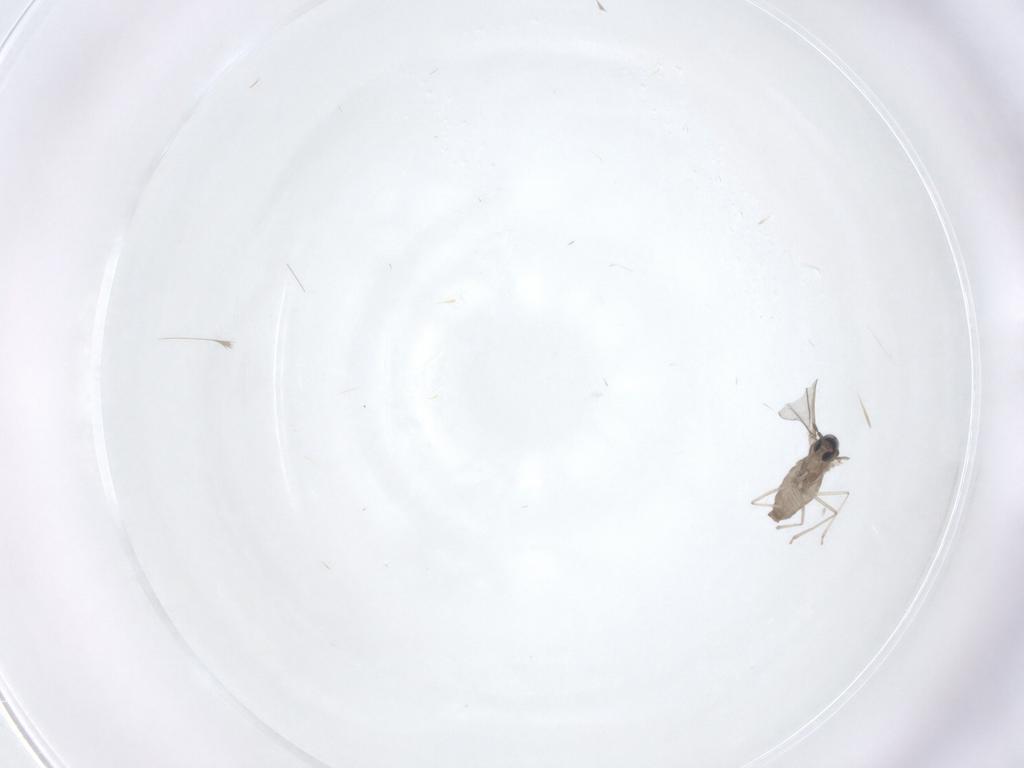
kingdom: Animalia
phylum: Arthropoda
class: Insecta
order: Diptera
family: Cecidomyiidae
